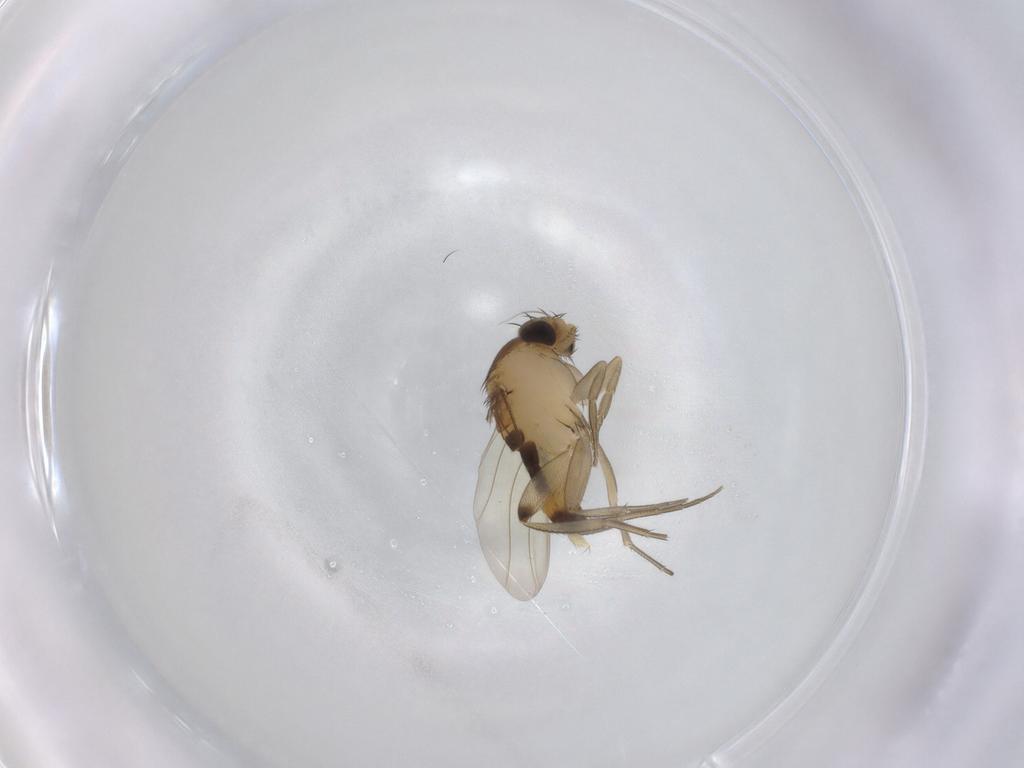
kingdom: Animalia
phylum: Arthropoda
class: Insecta
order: Diptera
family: Phoridae
